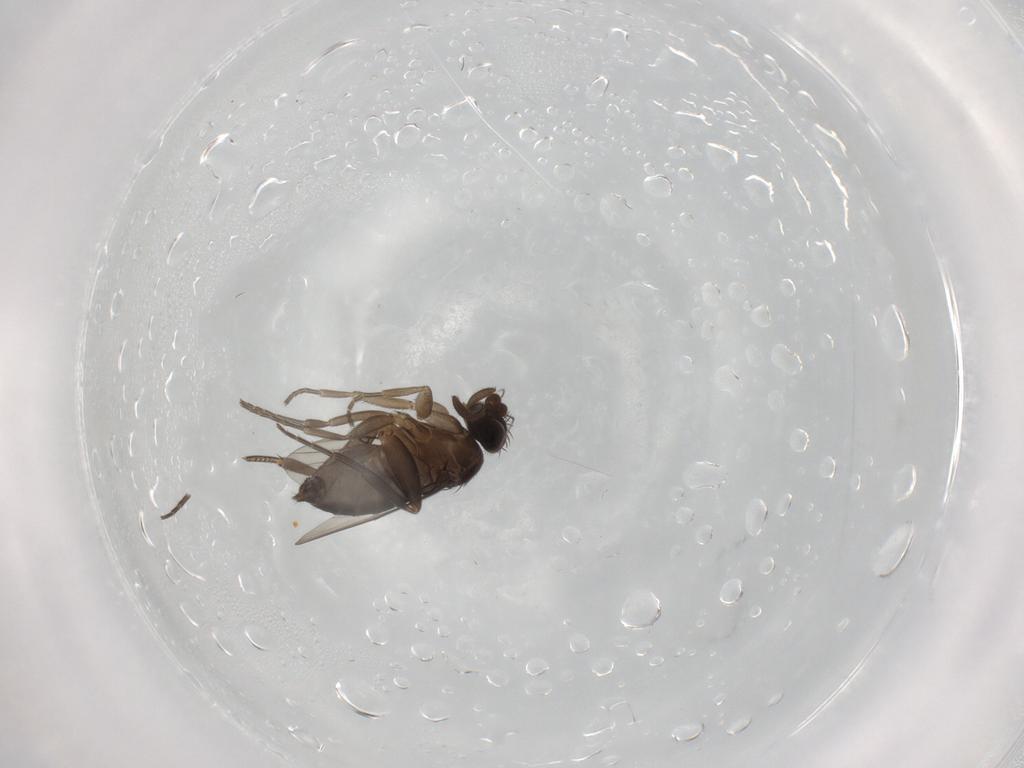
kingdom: Animalia
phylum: Arthropoda
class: Insecta
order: Diptera
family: Phoridae
